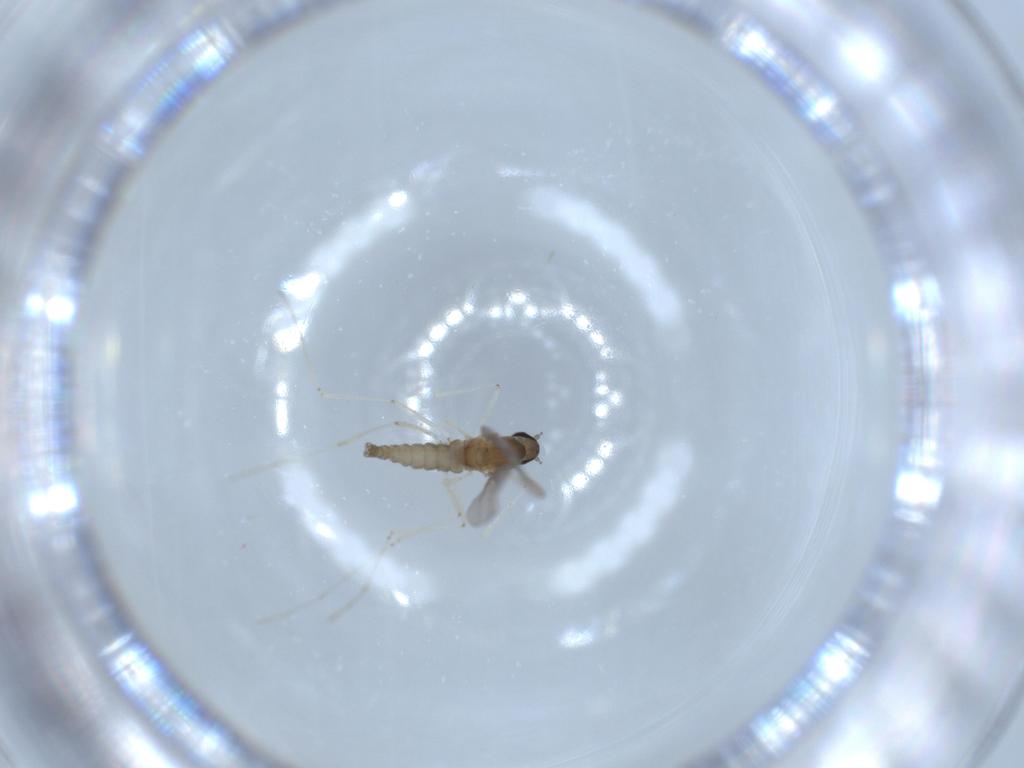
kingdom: Animalia
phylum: Arthropoda
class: Insecta
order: Diptera
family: Cecidomyiidae
